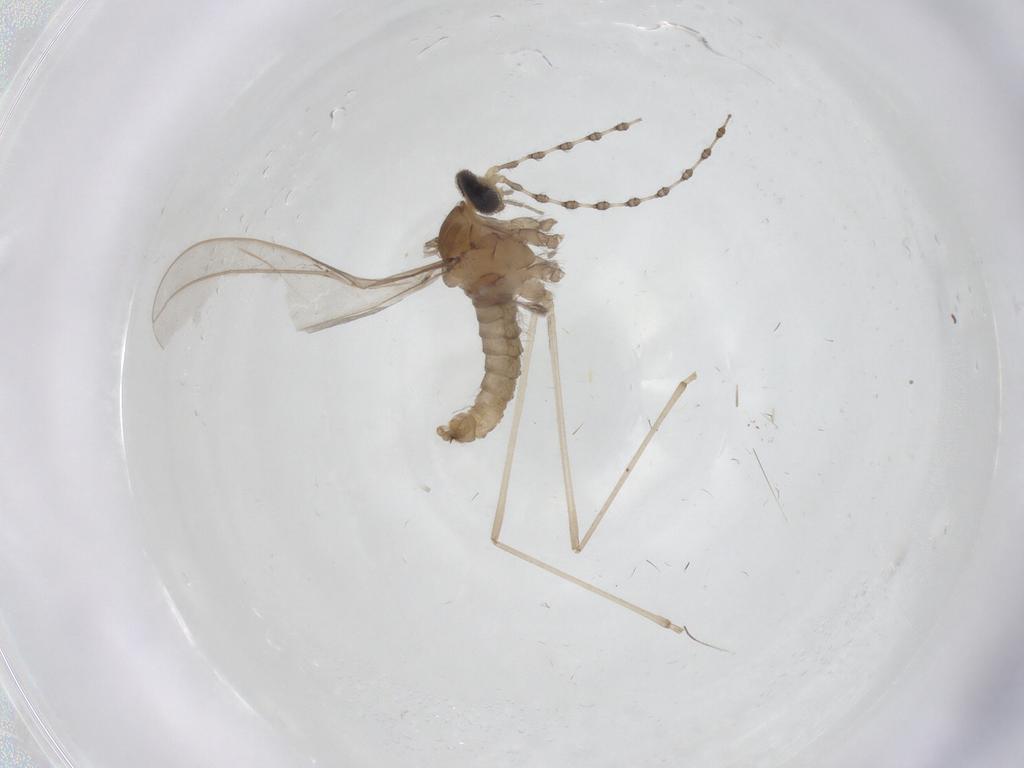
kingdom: Animalia
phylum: Arthropoda
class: Insecta
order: Diptera
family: Cecidomyiidae
